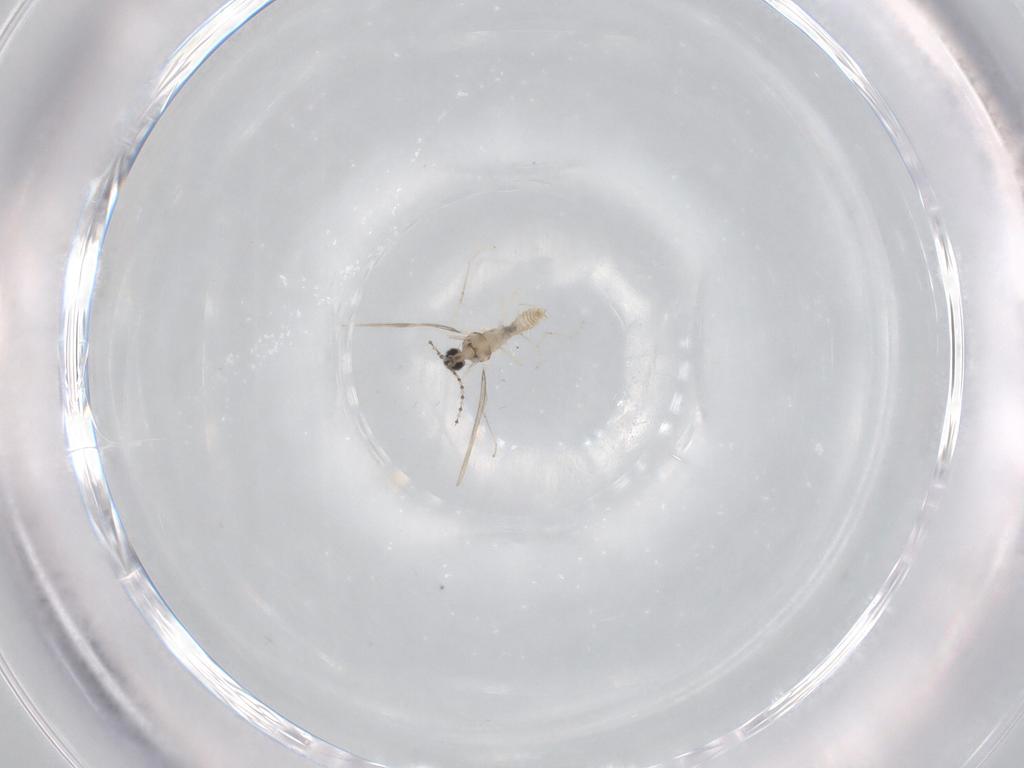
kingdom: Animalia
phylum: Arthropoda
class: Insecta
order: Diptera
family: Cecidomyiidae
